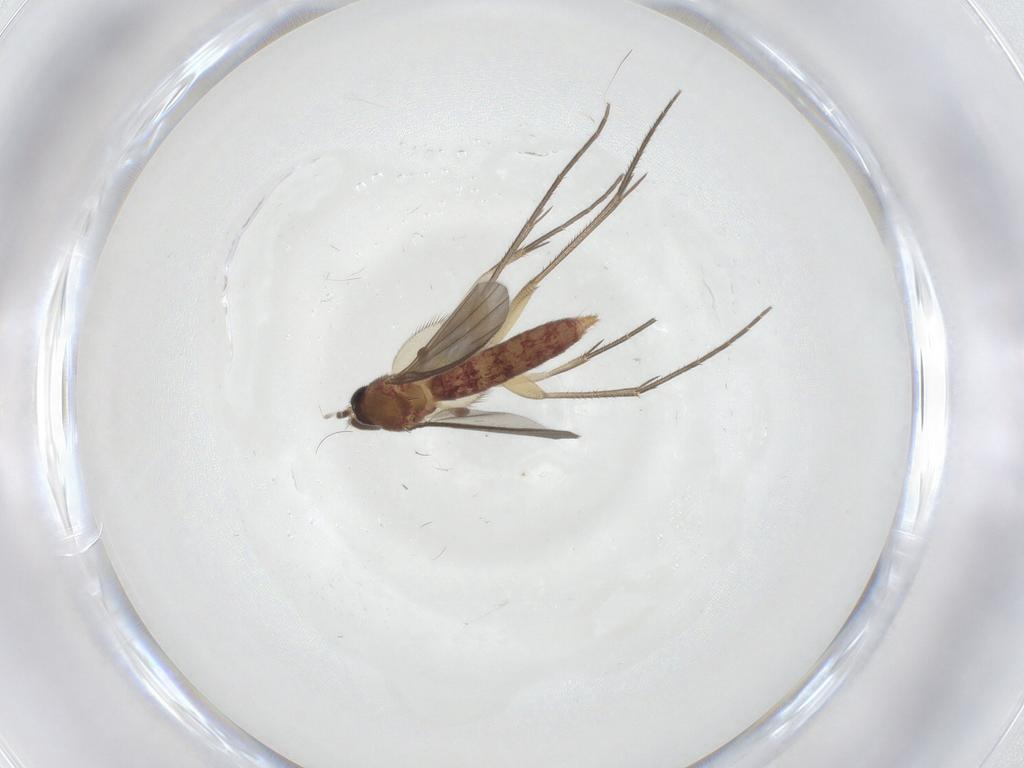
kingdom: Animalia
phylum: Arthropoda
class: Insecta
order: Diptera
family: Mycetophilidae
